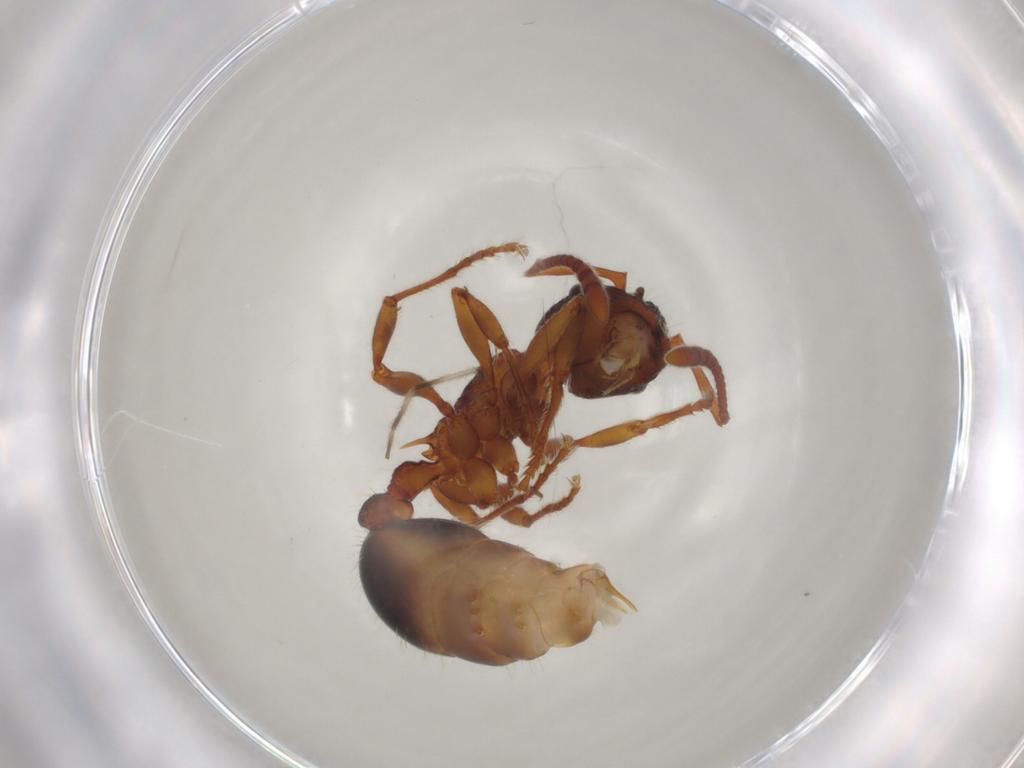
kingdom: Animalia
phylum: Arthropoda
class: Insecta
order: Hymenoptera
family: Formicidae
